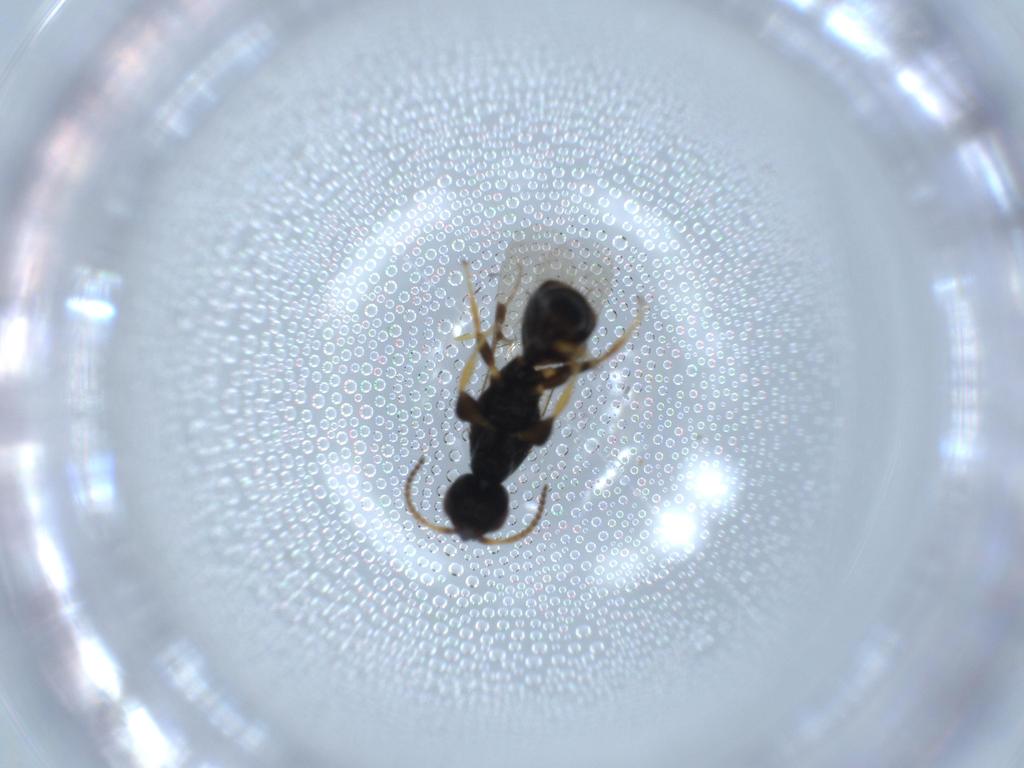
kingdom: Animalia
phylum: Arthropoda
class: Insecta
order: Hymenoptera
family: Bethylidae
